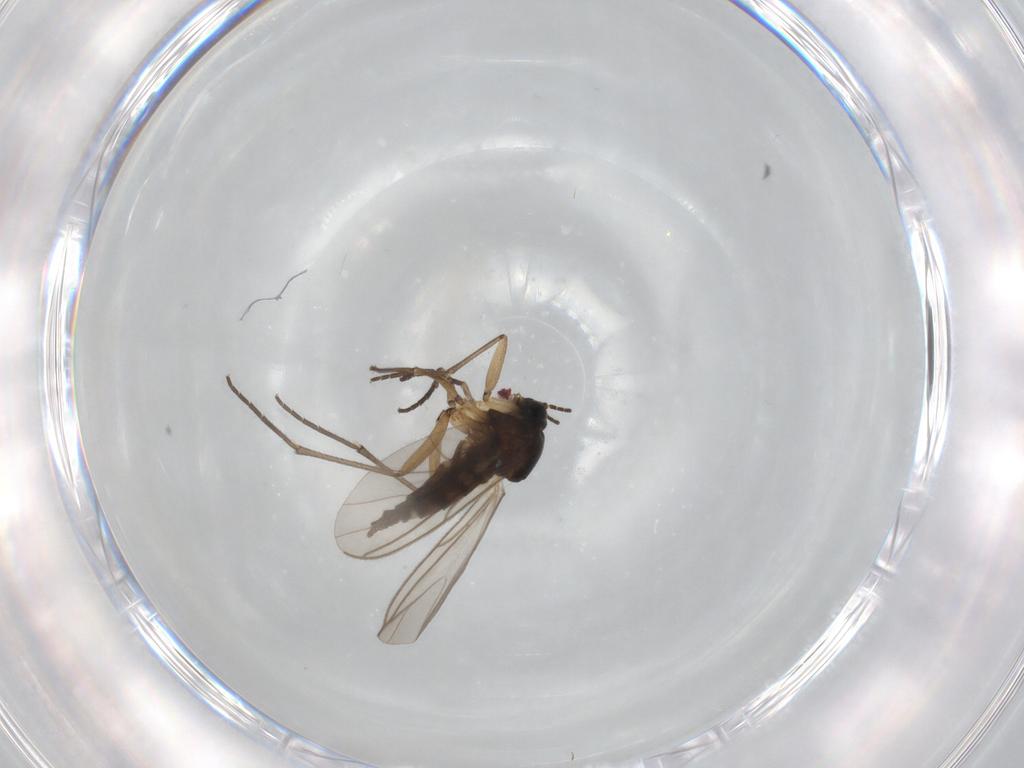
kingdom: Animalia
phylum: Arthropoda
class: Insecta
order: Diptera
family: Sciaridae
